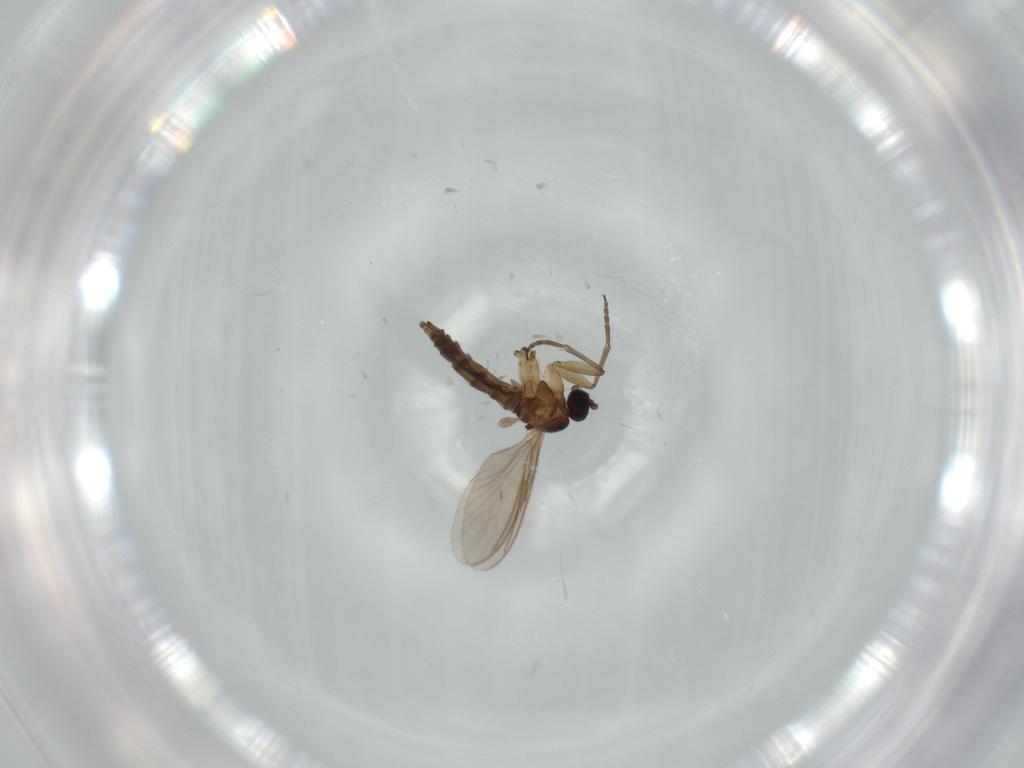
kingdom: Animalia
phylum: Arthropoda
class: Insecta
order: Diptera
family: Sciaridae
